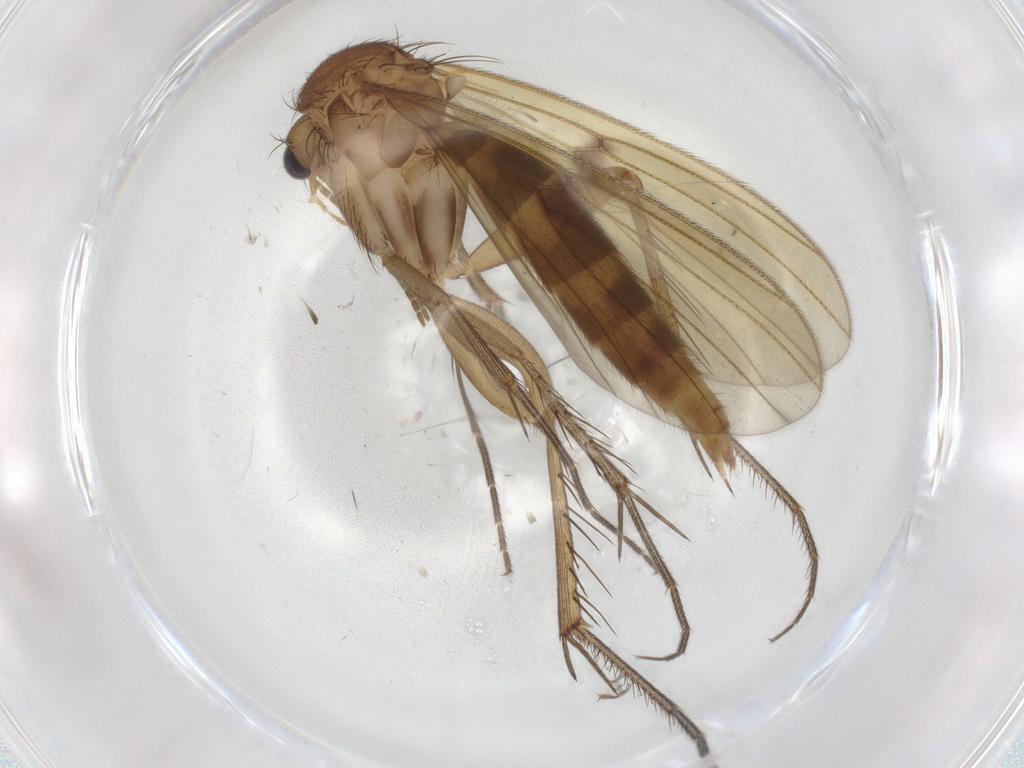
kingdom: Animalia
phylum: Arthropoda
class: Insecta
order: Diptera
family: Mycetophilidae
